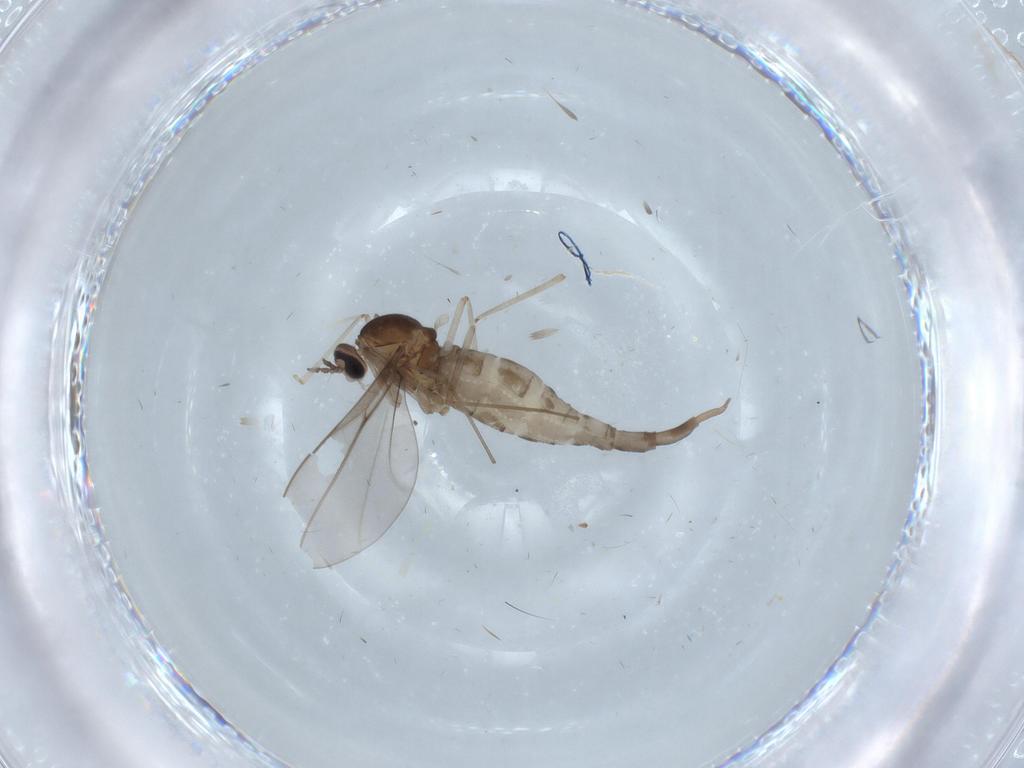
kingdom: Animalia
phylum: Arthropoda
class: Insecta
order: Diptera
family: Cecidomyiidae
